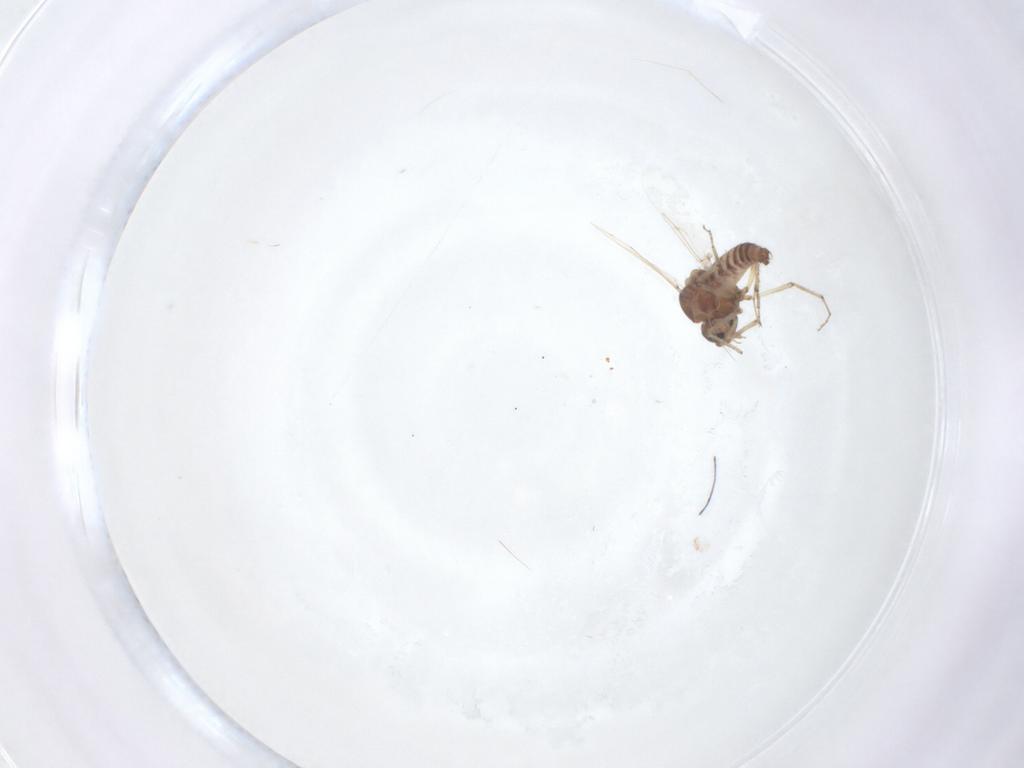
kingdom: Animalia
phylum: Arthropoda
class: Insecta
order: Diptera
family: Ceratopogonidae
